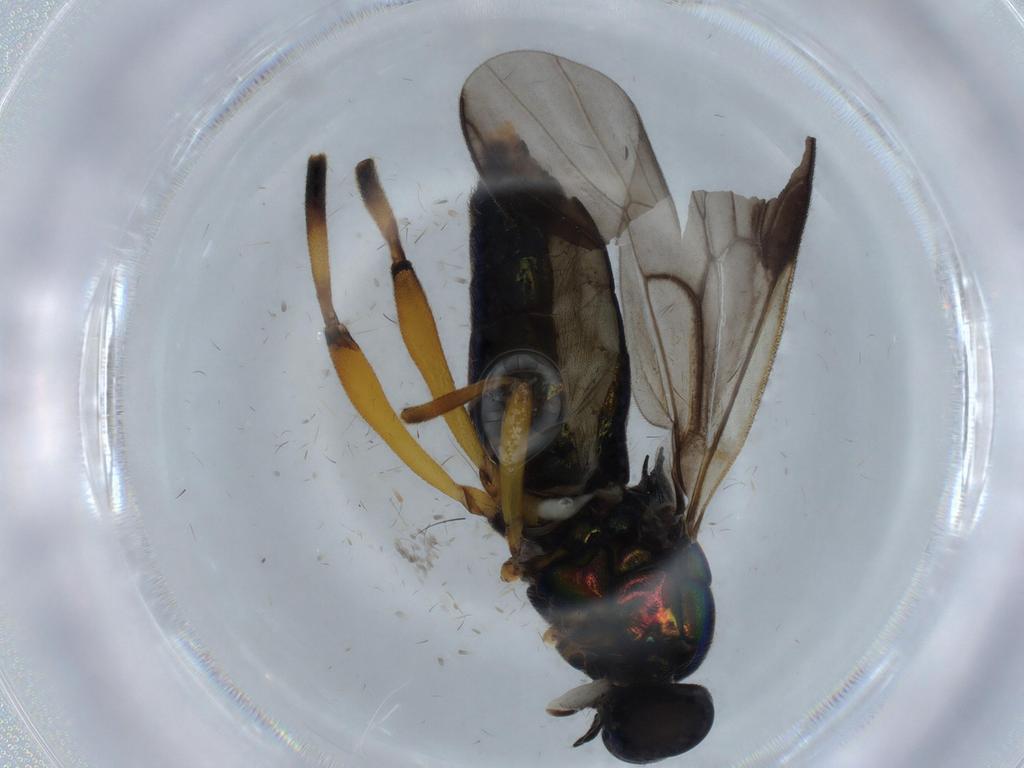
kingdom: Animalia
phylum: Arthropoda
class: Insecta
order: Diptera
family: Stratiomyidae
